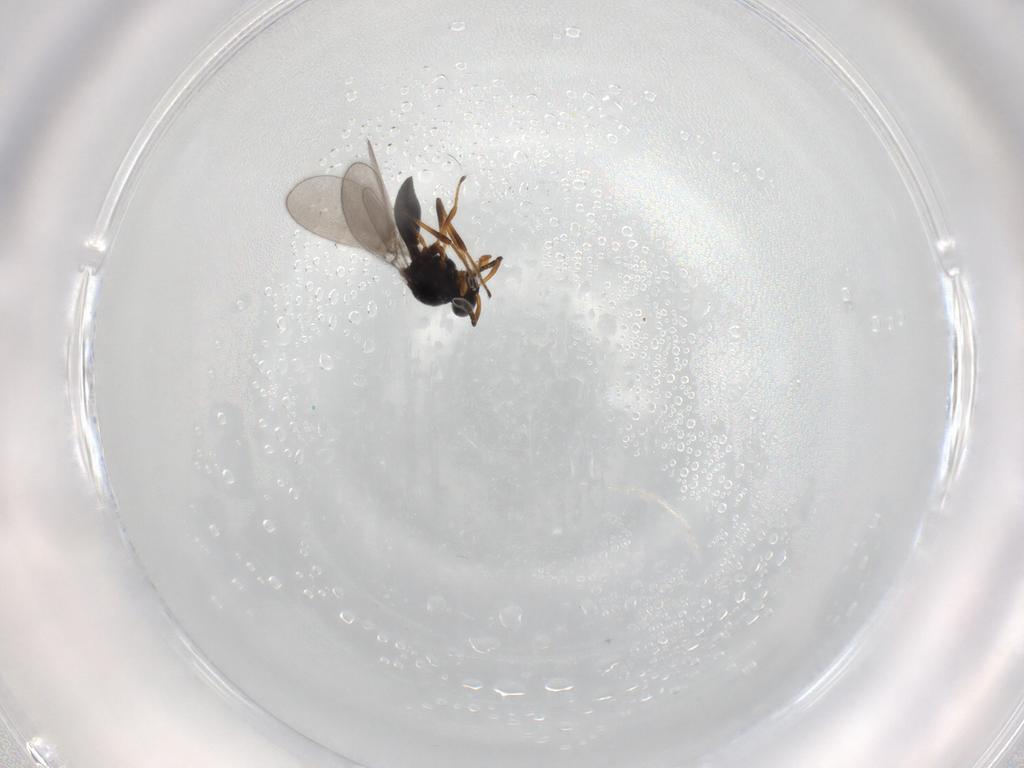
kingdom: Animalia
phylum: Arthropoda
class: Insecta
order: Hymenoptera
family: Platygastridae
